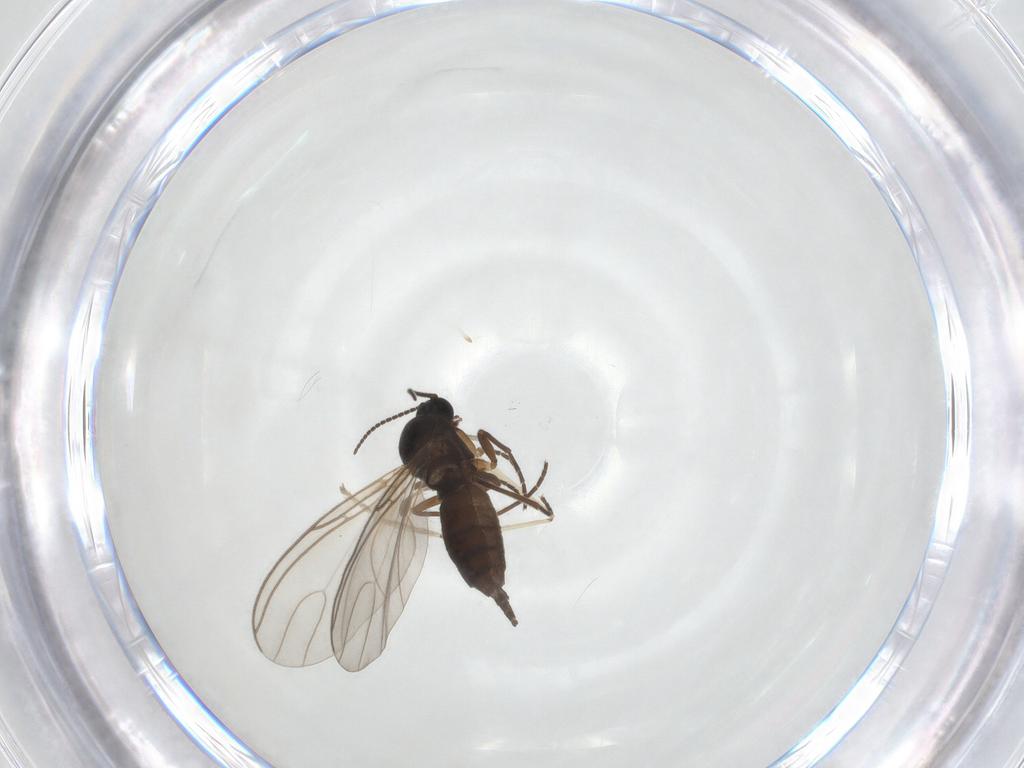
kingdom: Animalia
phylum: Arthropoda
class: Insecta
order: Diptera
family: Sciaridae
